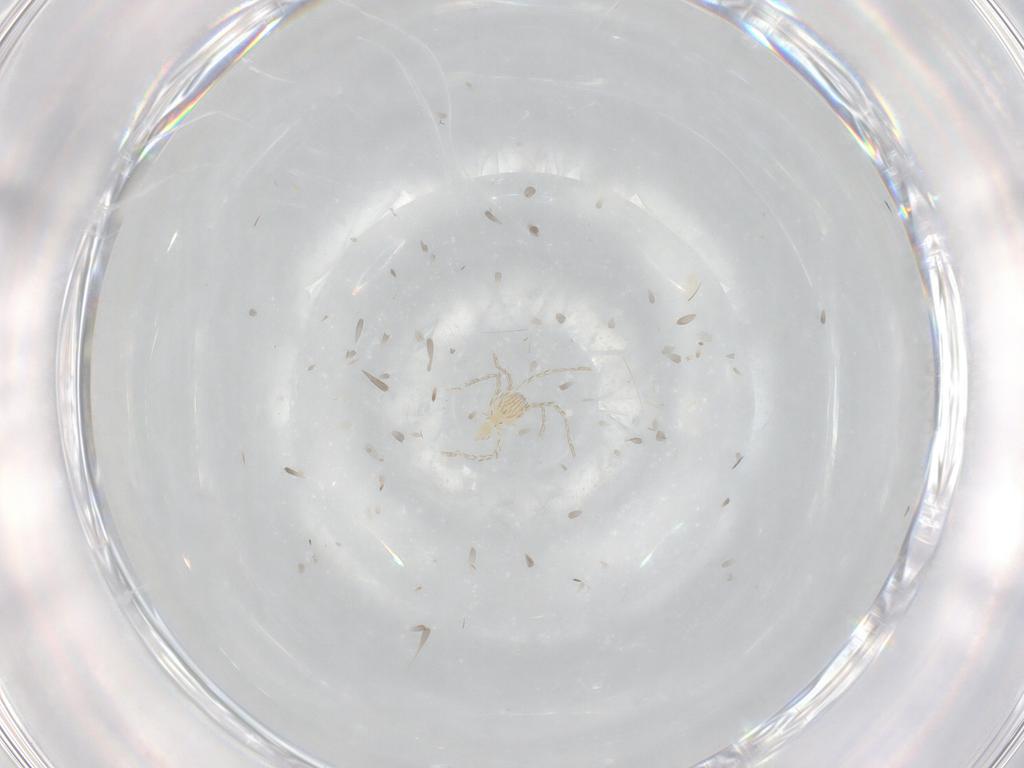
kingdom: Animalia
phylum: Arthropoda
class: Arachnida
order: Trombidiformes
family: Erythraeidae
